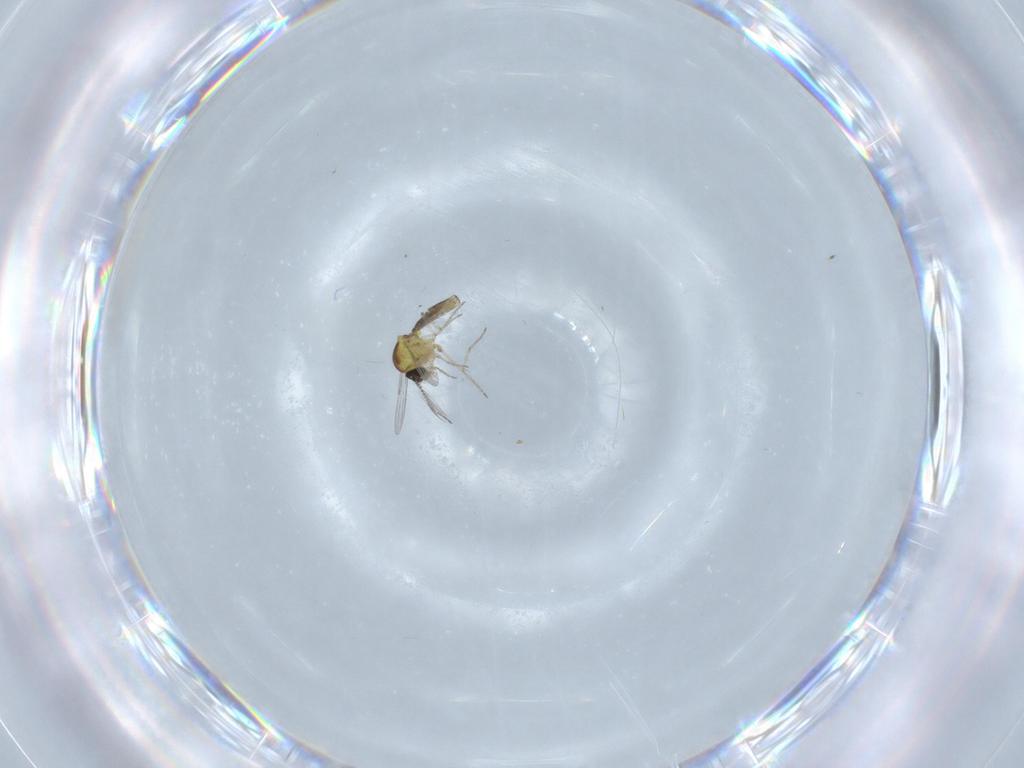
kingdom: Animalia
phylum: Arthropoda
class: Insecta
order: Diptera
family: Ceratopogonidae
